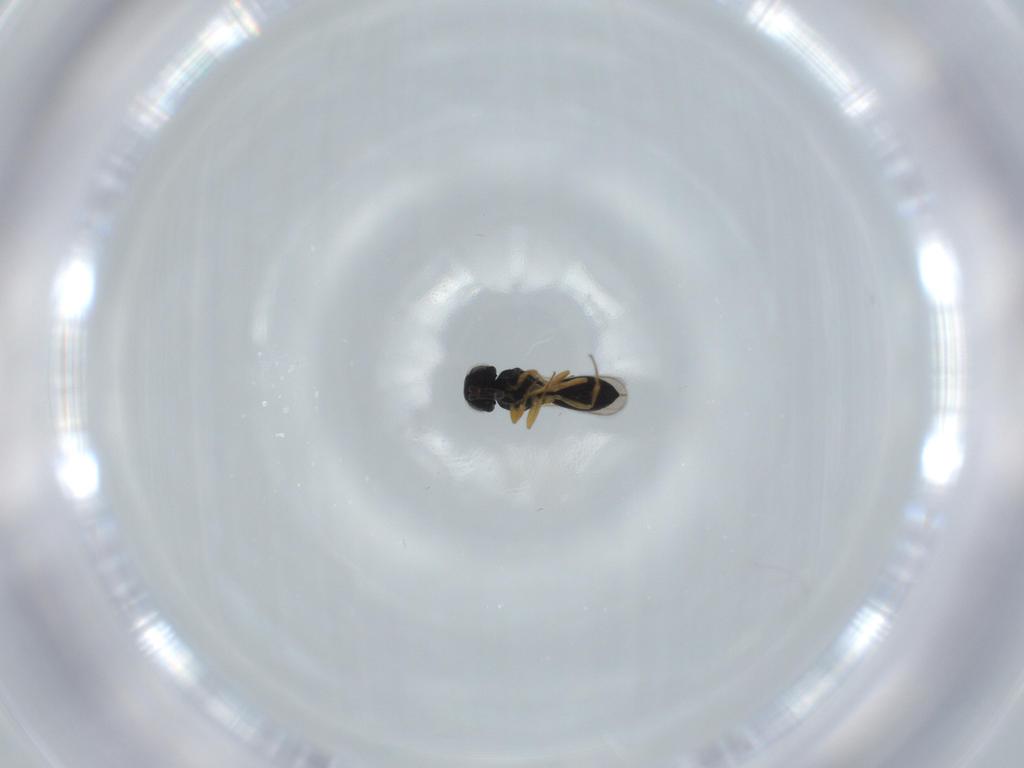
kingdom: Animalia
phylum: Arthropoda
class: Insecta
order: Hymenoptera
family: Scelionidae
